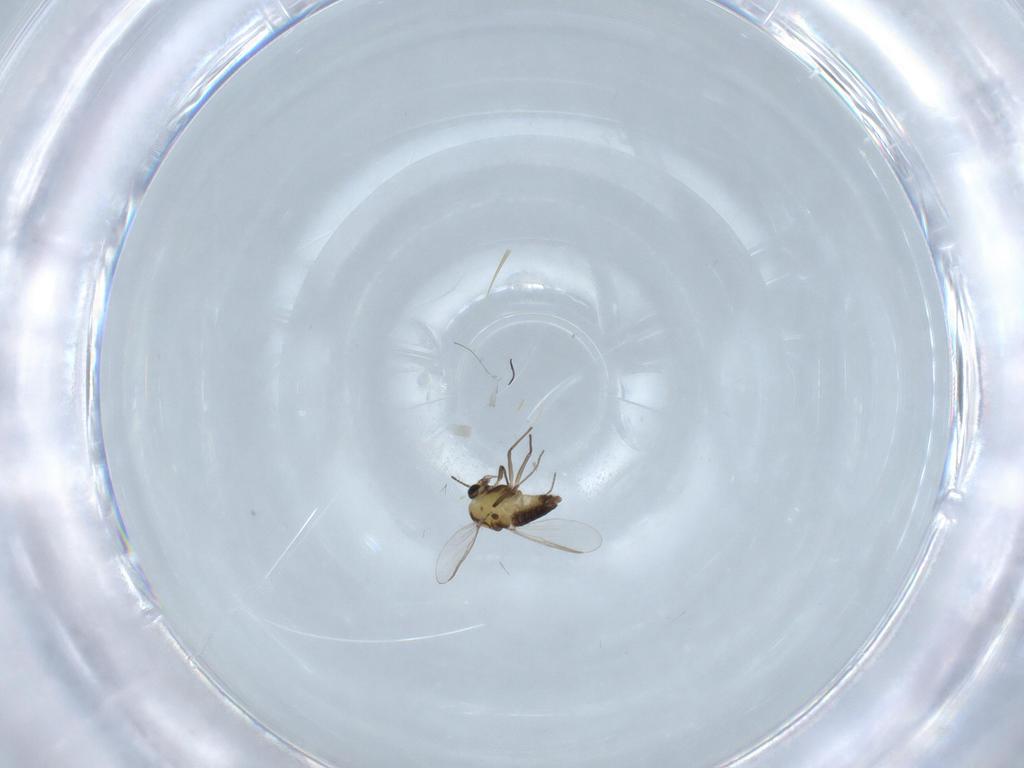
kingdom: Animalia
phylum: Arthropoda
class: Insecta
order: Diptera
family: Chironomidae
